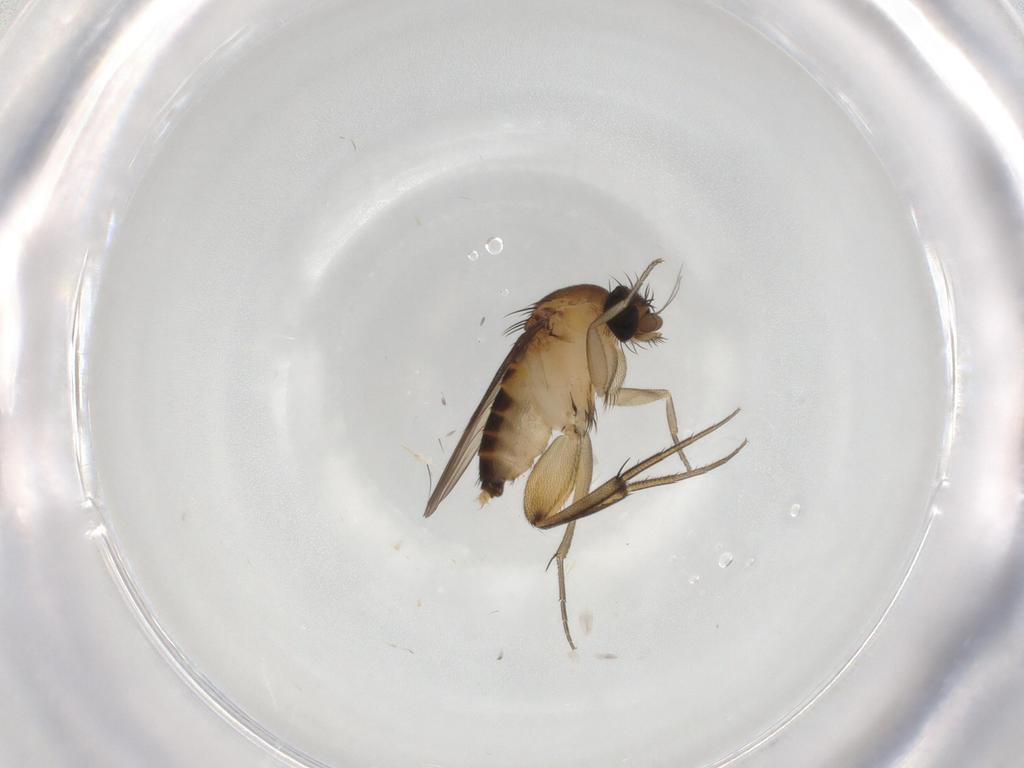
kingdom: Animalia
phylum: Arthropoda
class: Insecta
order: Diptera
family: Phoridae
